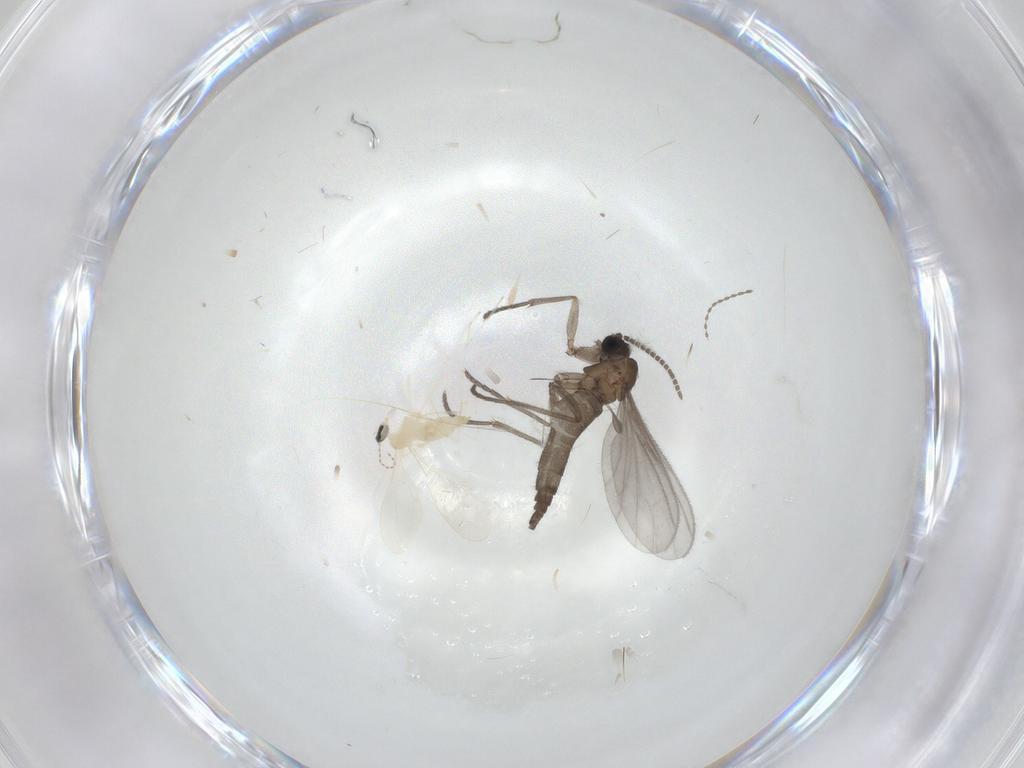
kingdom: Animalia
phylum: Arthropoda
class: Insecta
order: Diptera
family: Sciaridae
